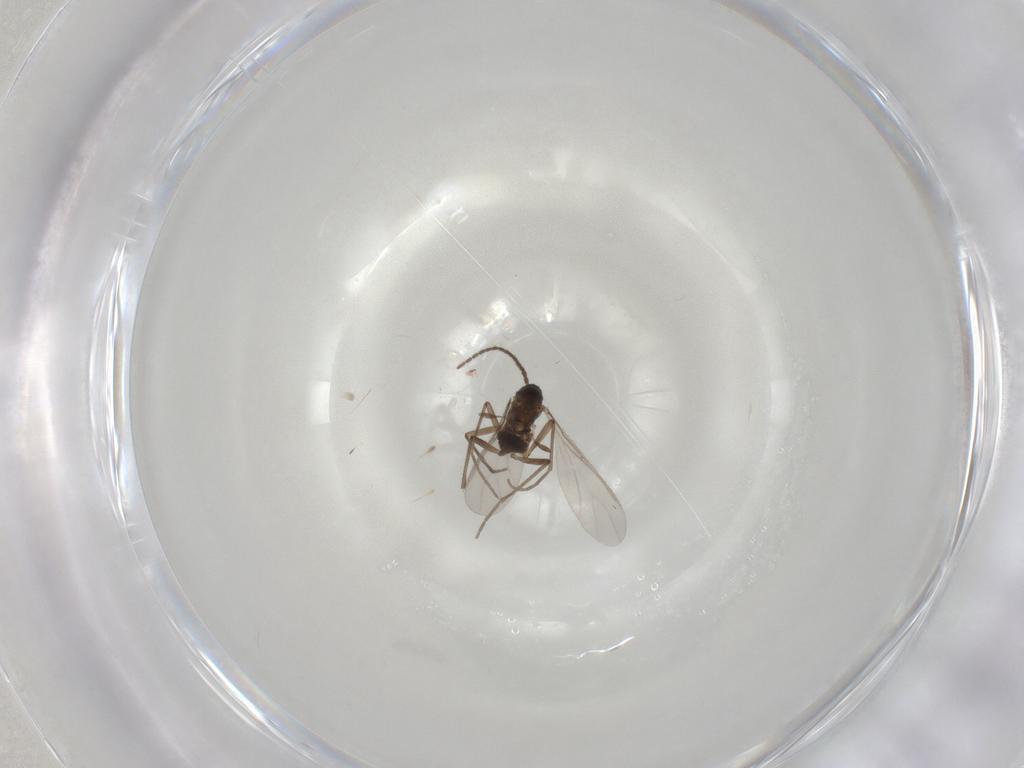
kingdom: Animalia
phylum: Arthropoda
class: Insecta
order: Diptera
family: Sciaridae
